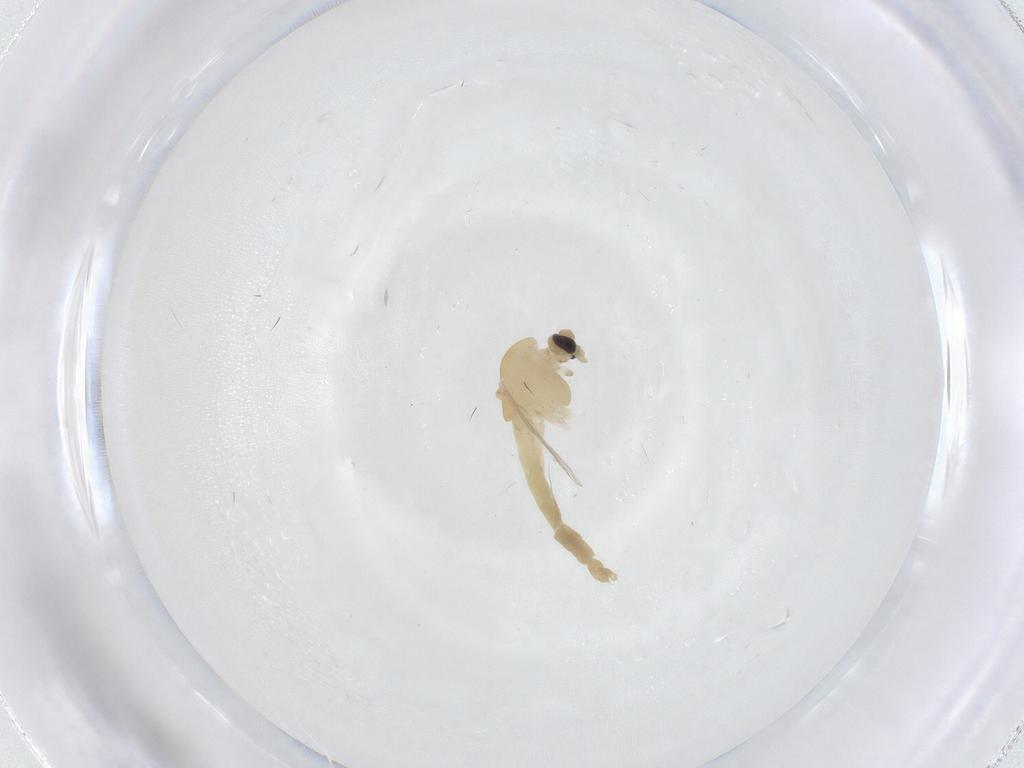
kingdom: Animalia
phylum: Arthropoda
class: Insecta
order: Diptera
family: Chironomidae
